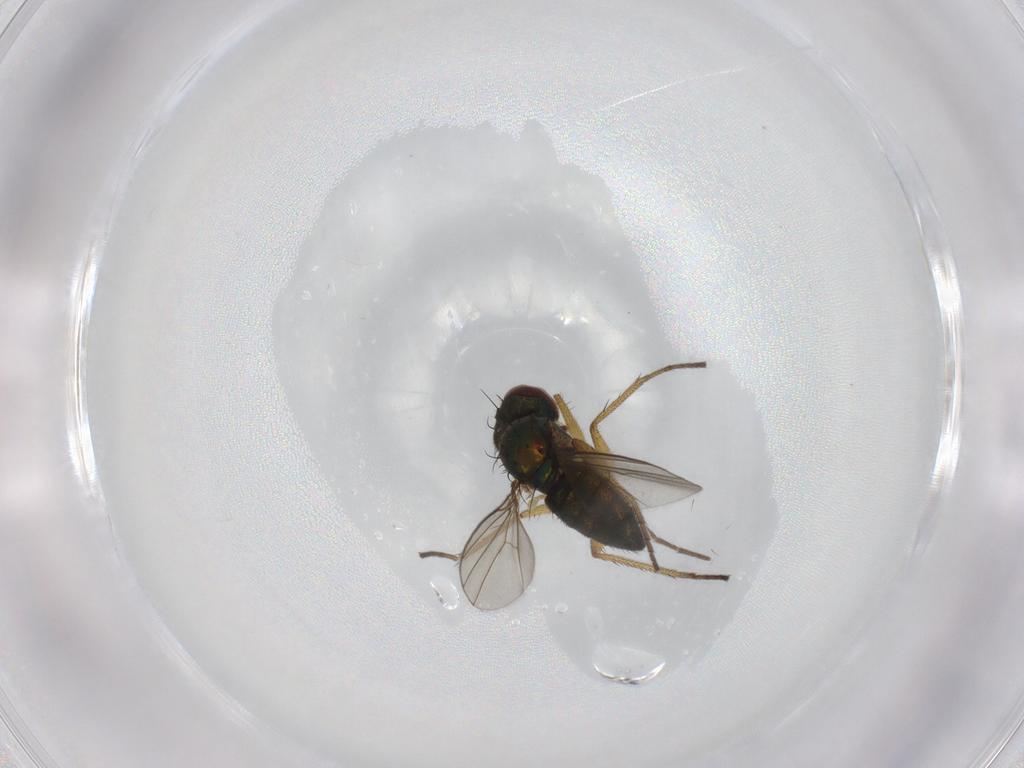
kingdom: Animalia
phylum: Arthropoda
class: Insecta
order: Diptera
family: Limoniidae
